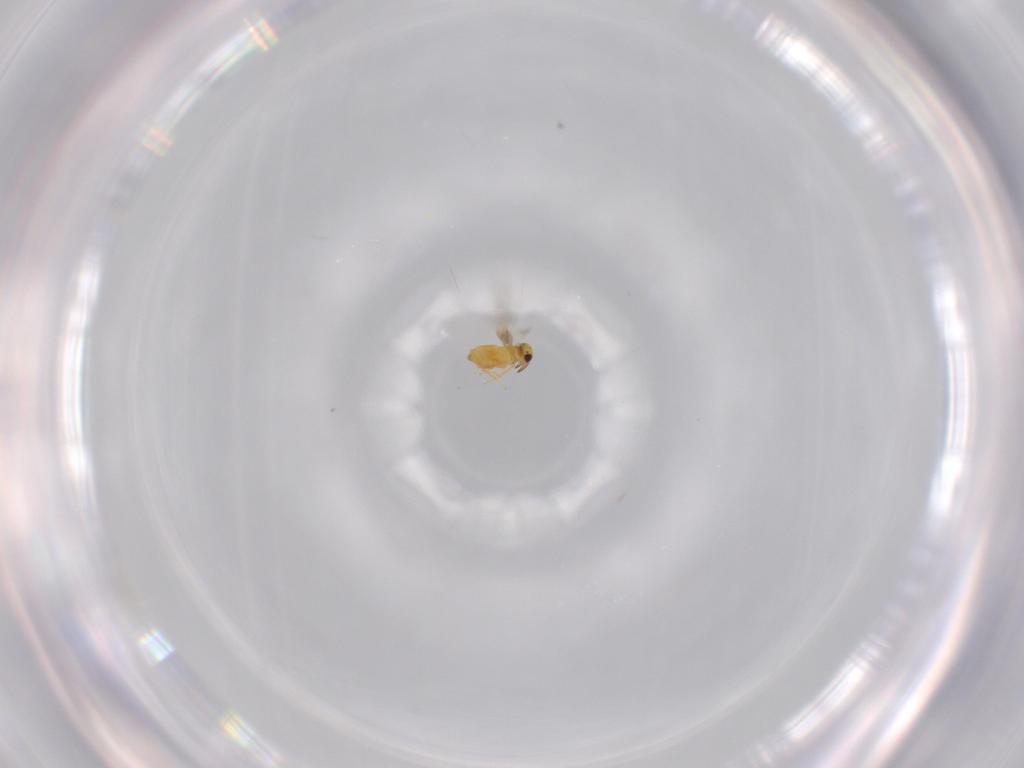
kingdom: Animalia
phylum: Arthropoda
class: Insecta
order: Hymenoptera
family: Signiphoridae
